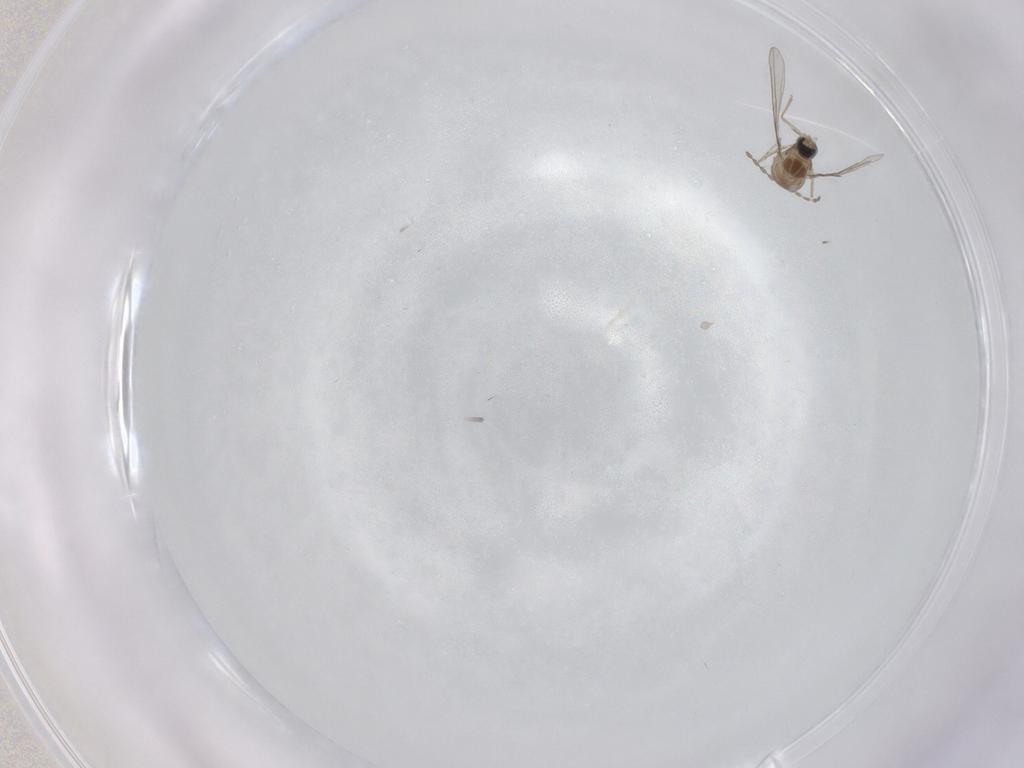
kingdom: Animalia
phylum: Arthropoda
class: Insecta
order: Diptera
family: Cecidomyiidae
